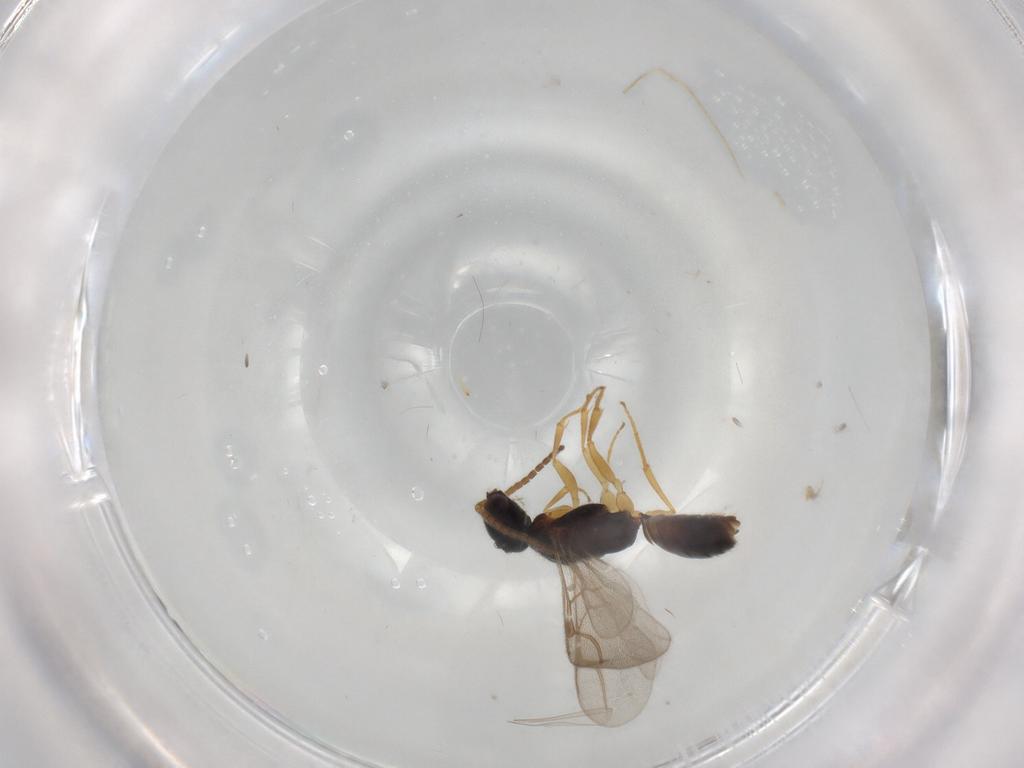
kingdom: Animalia
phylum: Arthropoda
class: Insecta
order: Hymenoptera
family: Bethylidae
